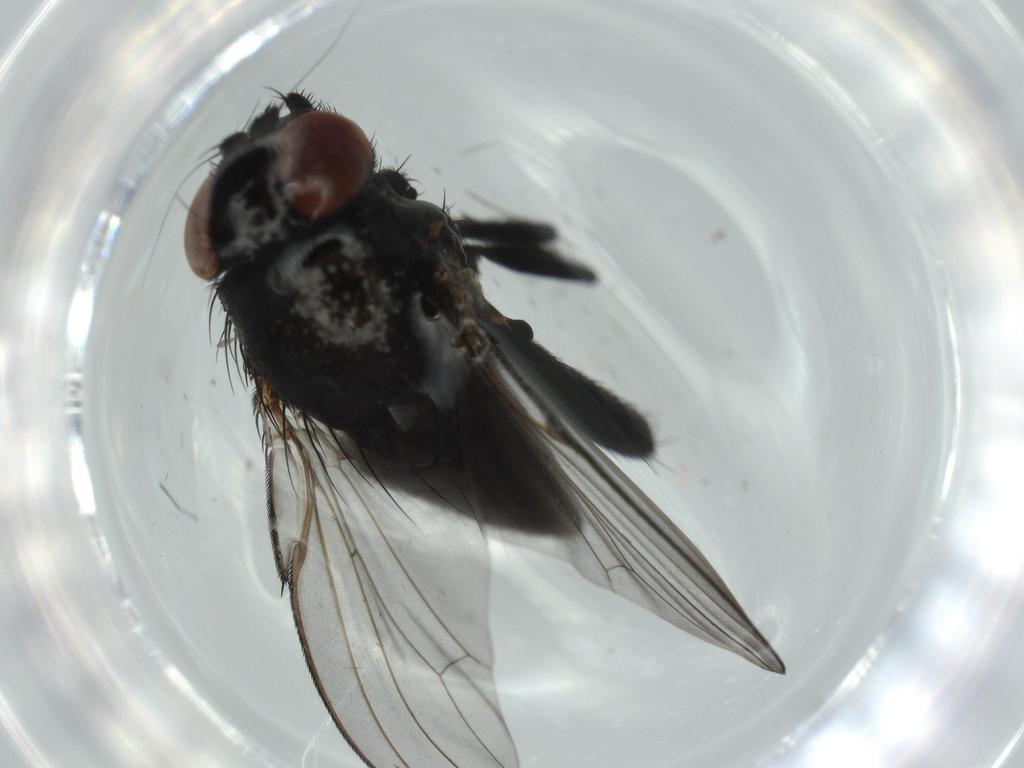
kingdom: Animalia
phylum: Arthropoda
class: Insecta
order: Diptera
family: Milichiidae
